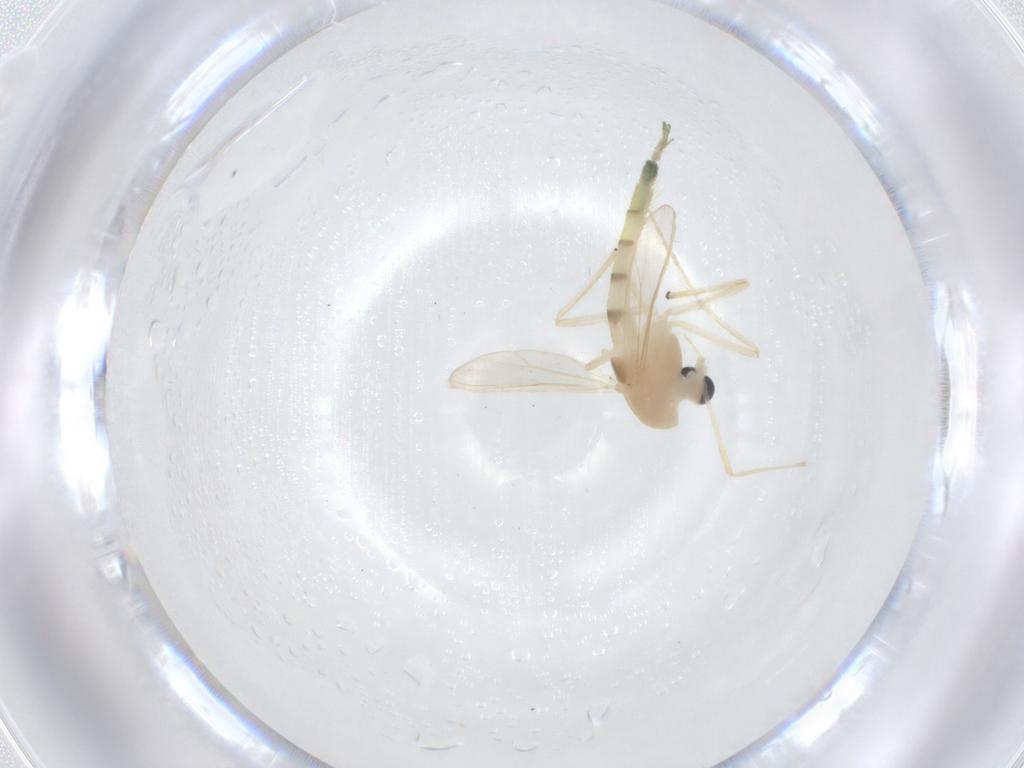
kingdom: Animalia
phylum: Arthropoda
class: Insecta
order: Diptera
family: Chironomidae
